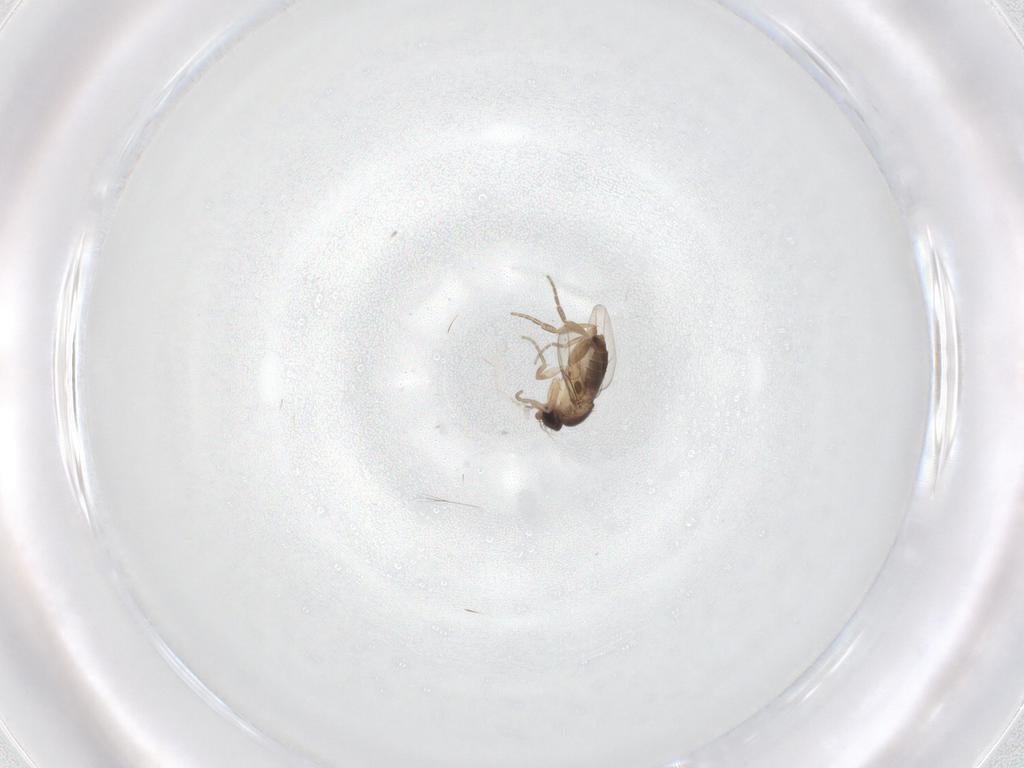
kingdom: Animalia
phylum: Arthropoda
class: Insecta
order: Diptera
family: Phoridae
